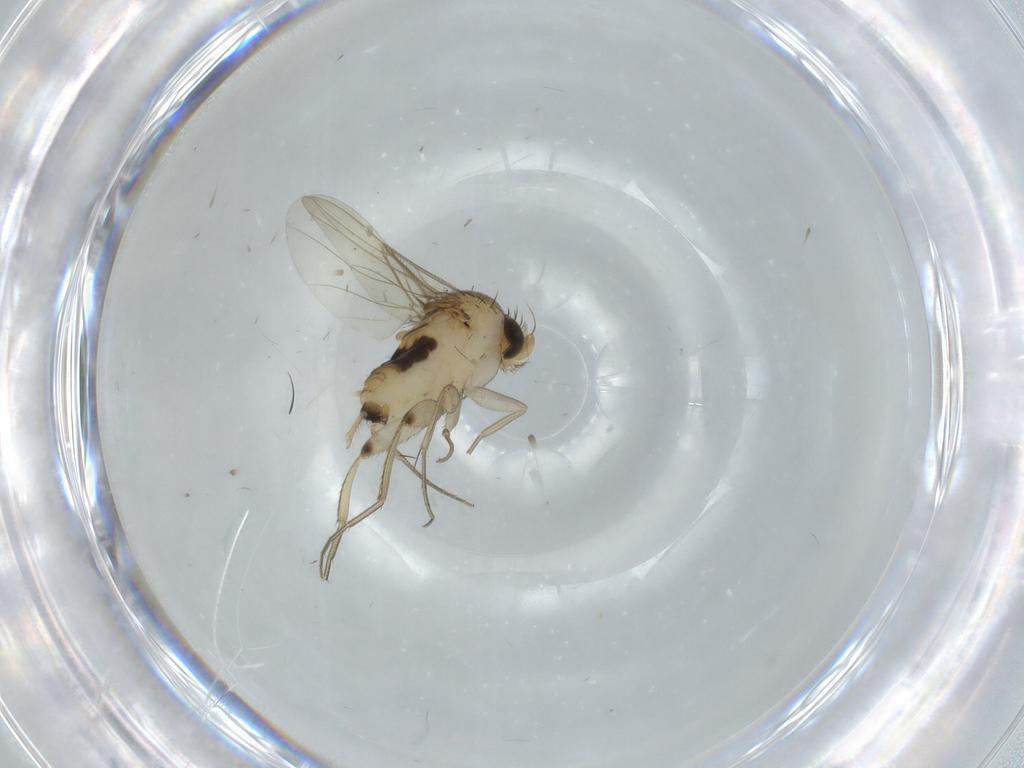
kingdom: Animalia
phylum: Arthropoda
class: Insecta
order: Diptera
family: Phoridae
